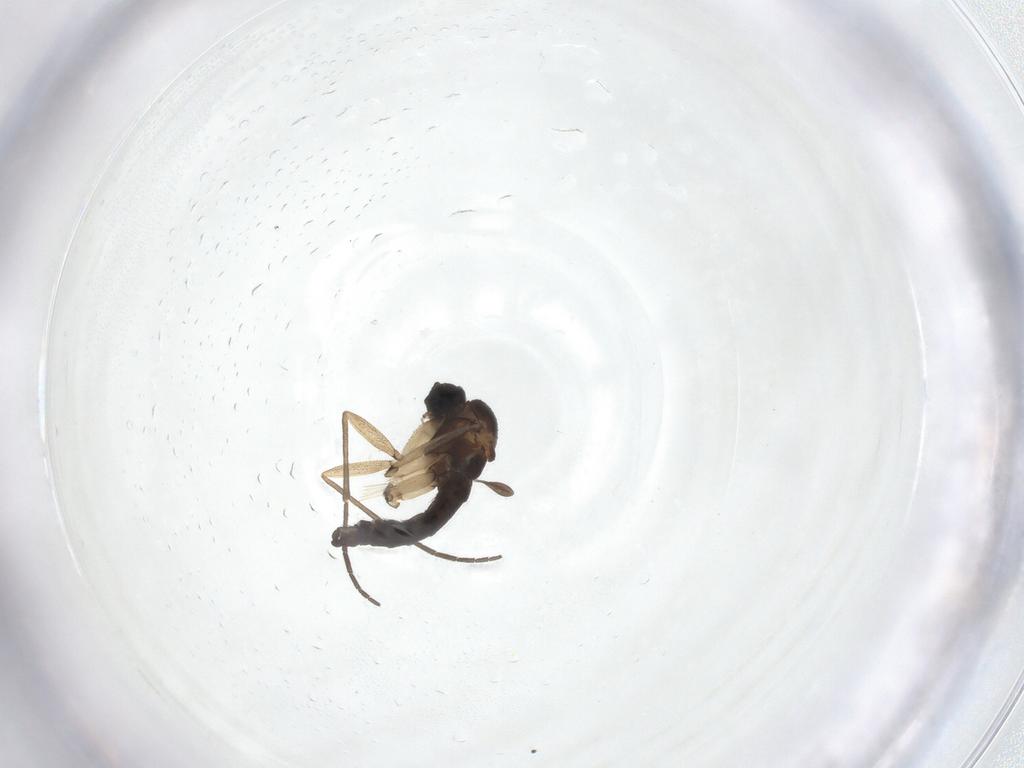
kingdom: Animalia
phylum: Arthropoda
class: Insecta
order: Diptera
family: Sciaridae
